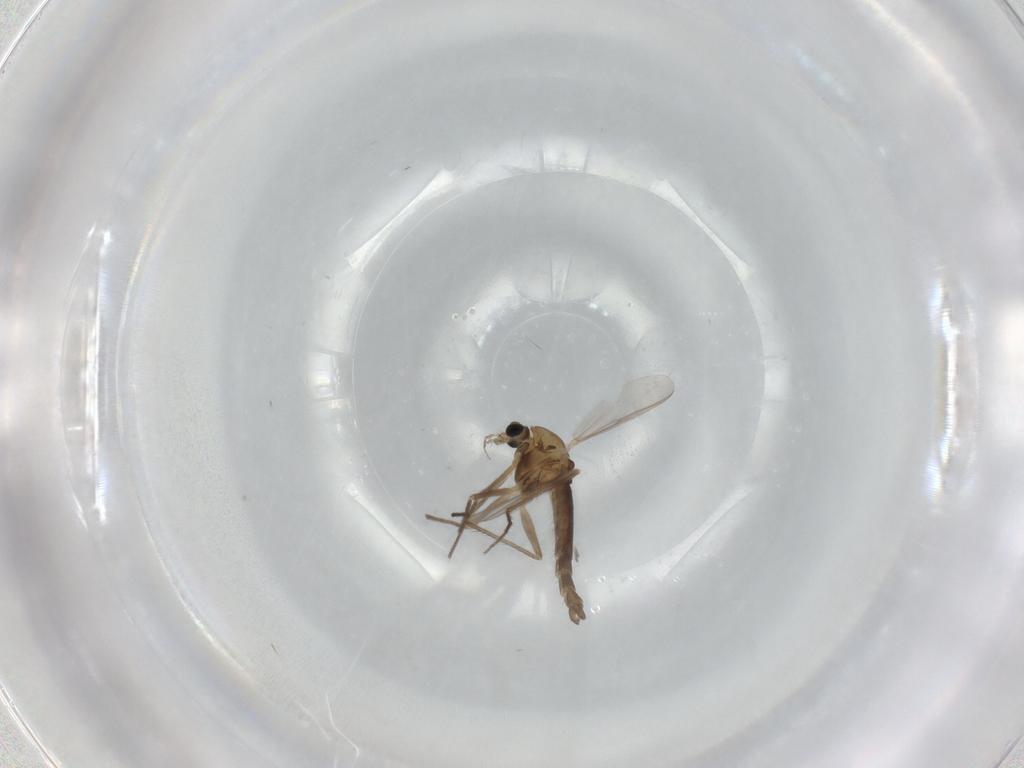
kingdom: Animalia
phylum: Arthropoda
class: Insecta
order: Diptera
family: Chironomidae
